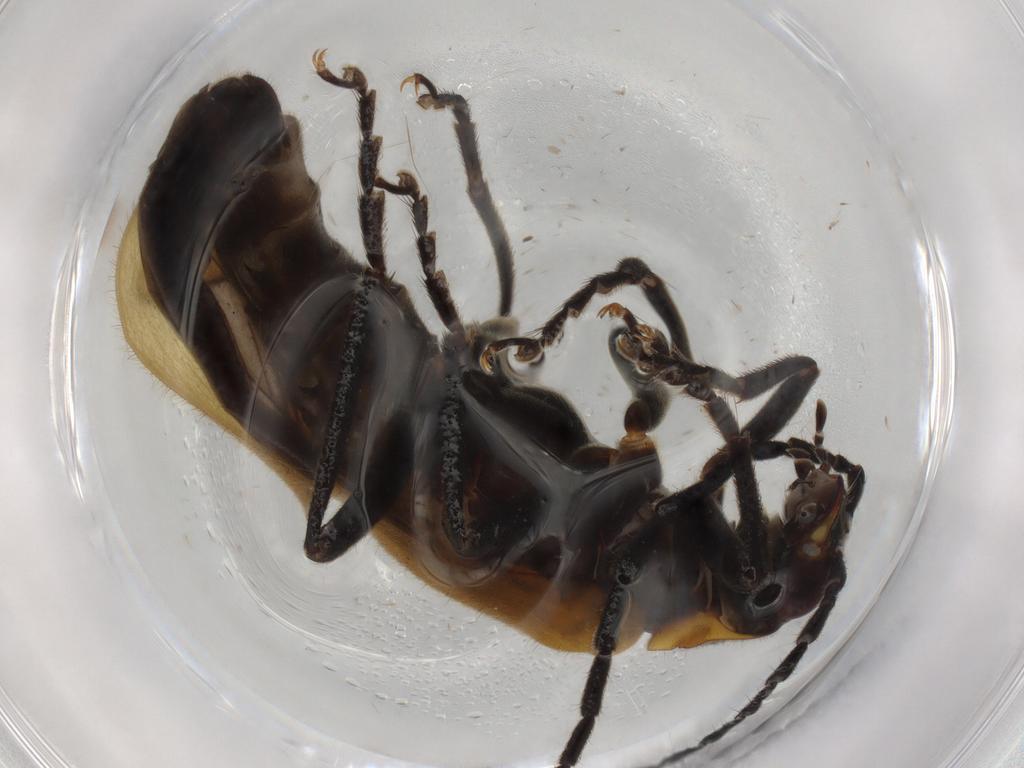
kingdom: Animalia
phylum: Arthropoda
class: Insecta
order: Coleoptera
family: Cantharidae
